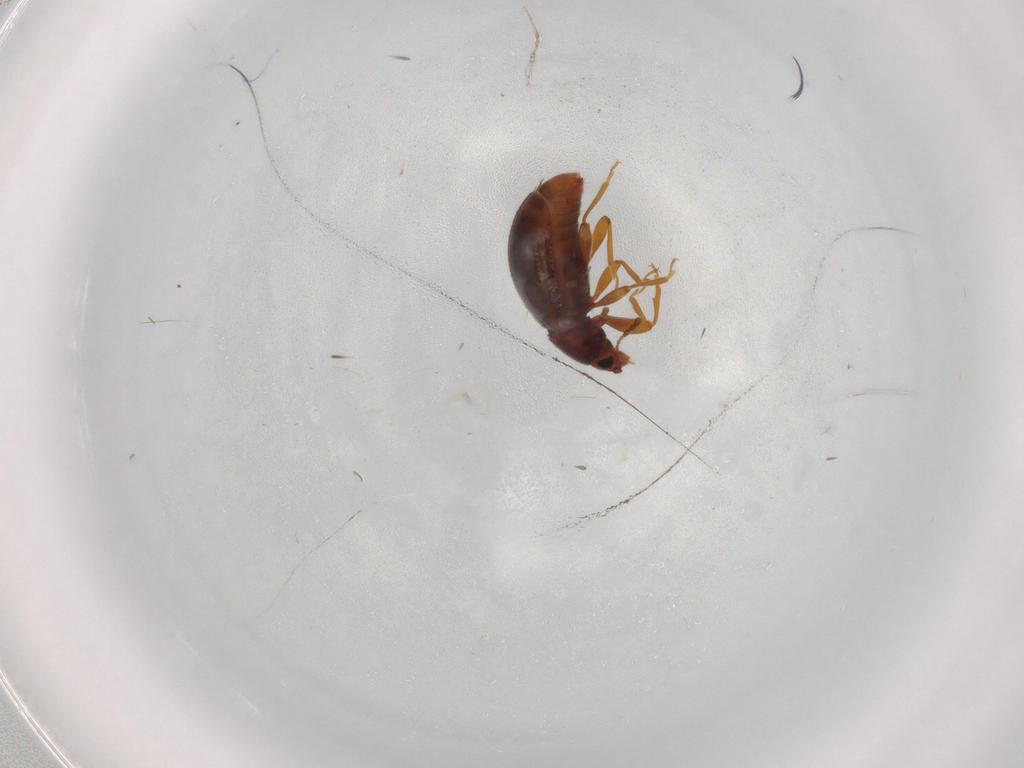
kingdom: Animalia
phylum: Arthropoda
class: Insecta
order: Coleoptera
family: Latridiidae
